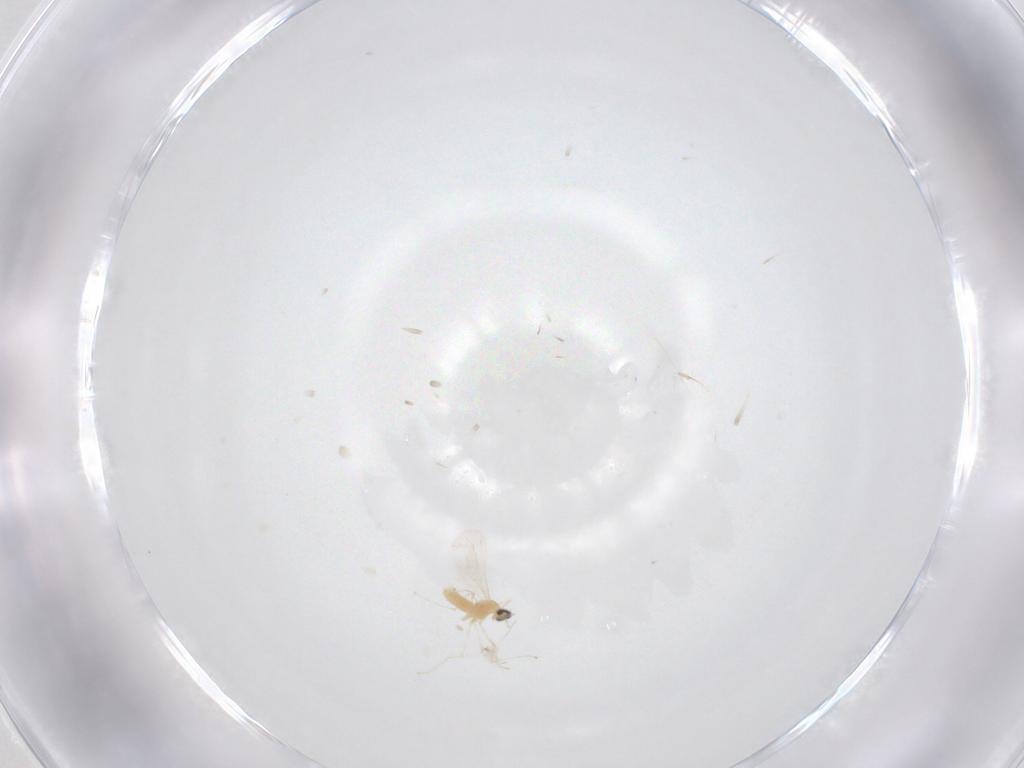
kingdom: Animalia
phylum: Arthropoda
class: Insecta
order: Diptera
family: Cecidomyiidae
